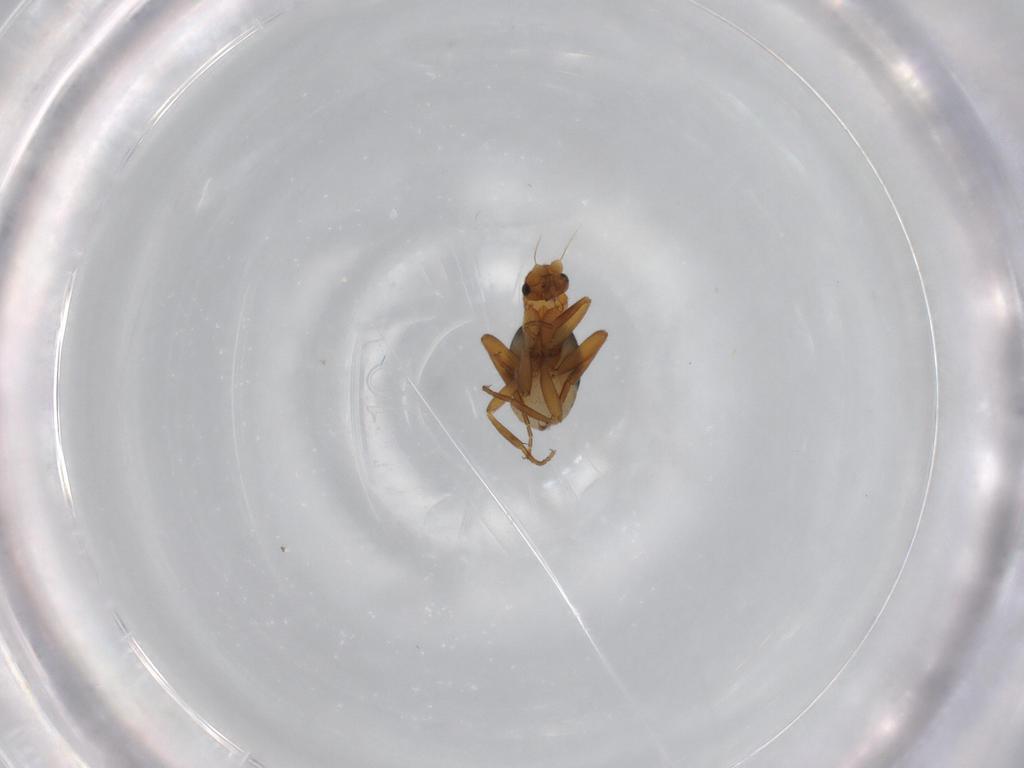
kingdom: Animalia
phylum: Arthropoda
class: Insecta
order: Diptera
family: Phoridae
